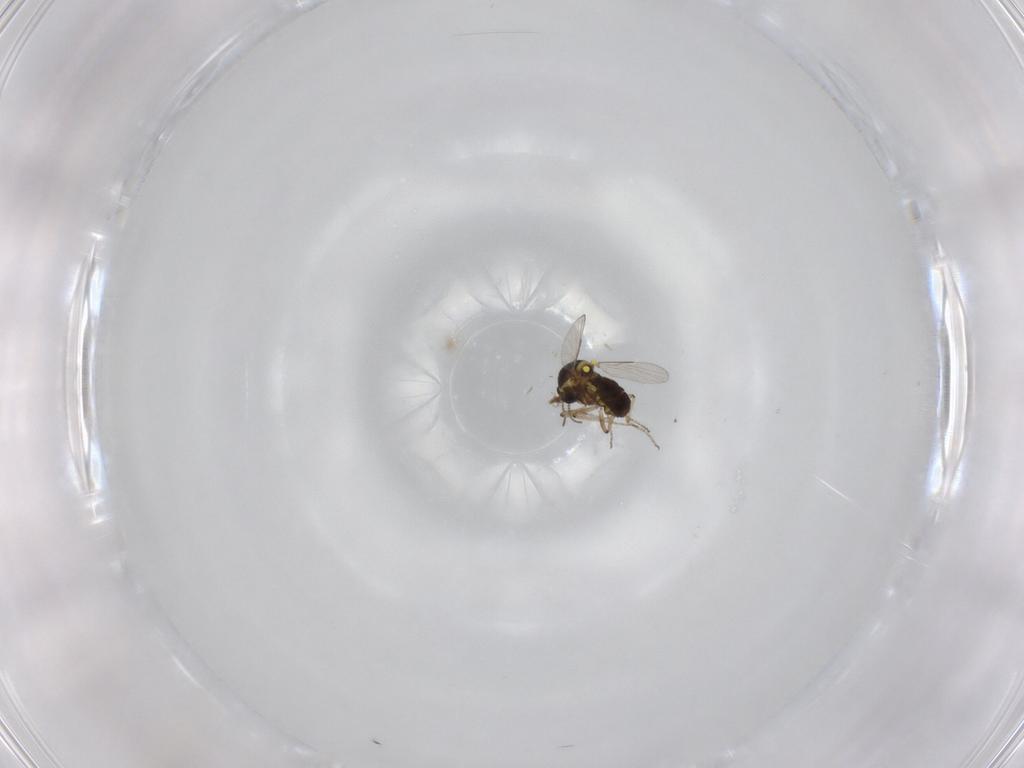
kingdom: Animalia
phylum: Arthropoda
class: Insecta
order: Diptera
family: Ceratopogonidae
